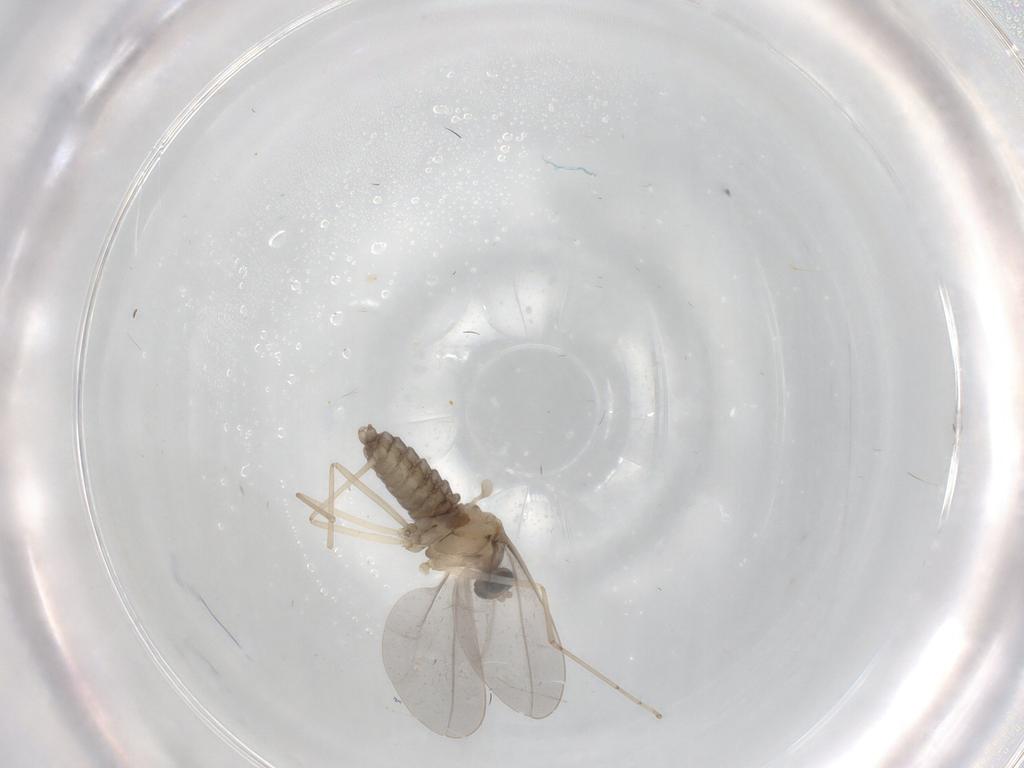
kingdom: Animalia
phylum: Arthropoda
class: Insecta
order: Diptera
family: Cecidomyiidae
